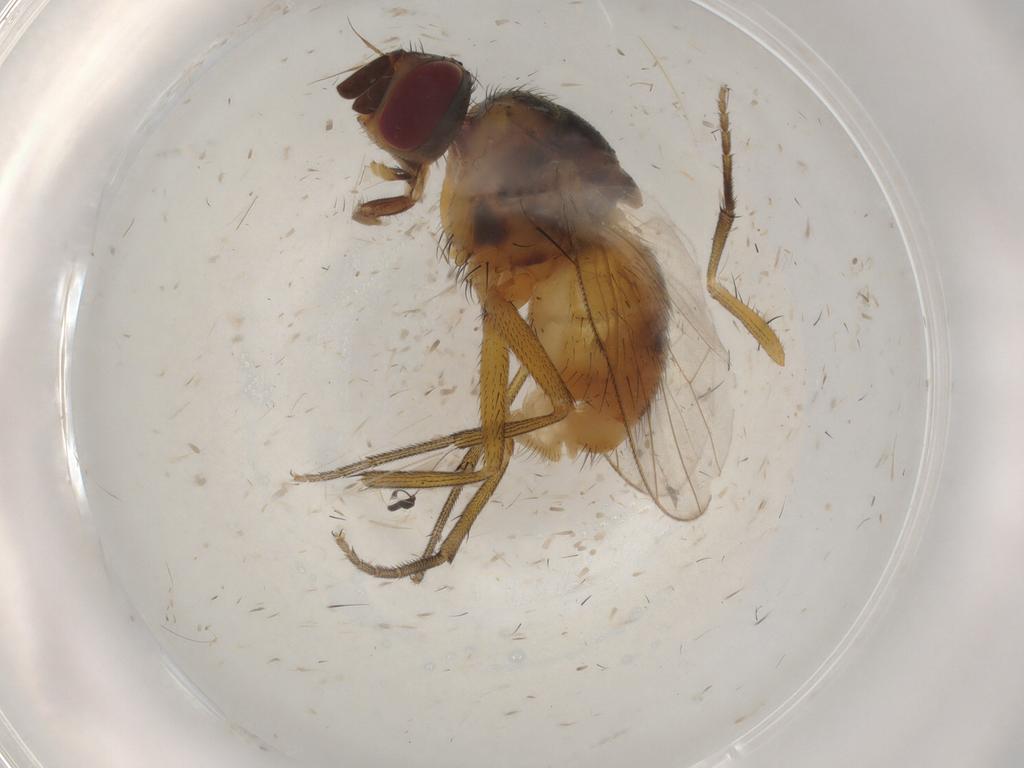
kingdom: Animalia
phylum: Arthropoda
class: Insecta
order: Diptera
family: Muscidae
